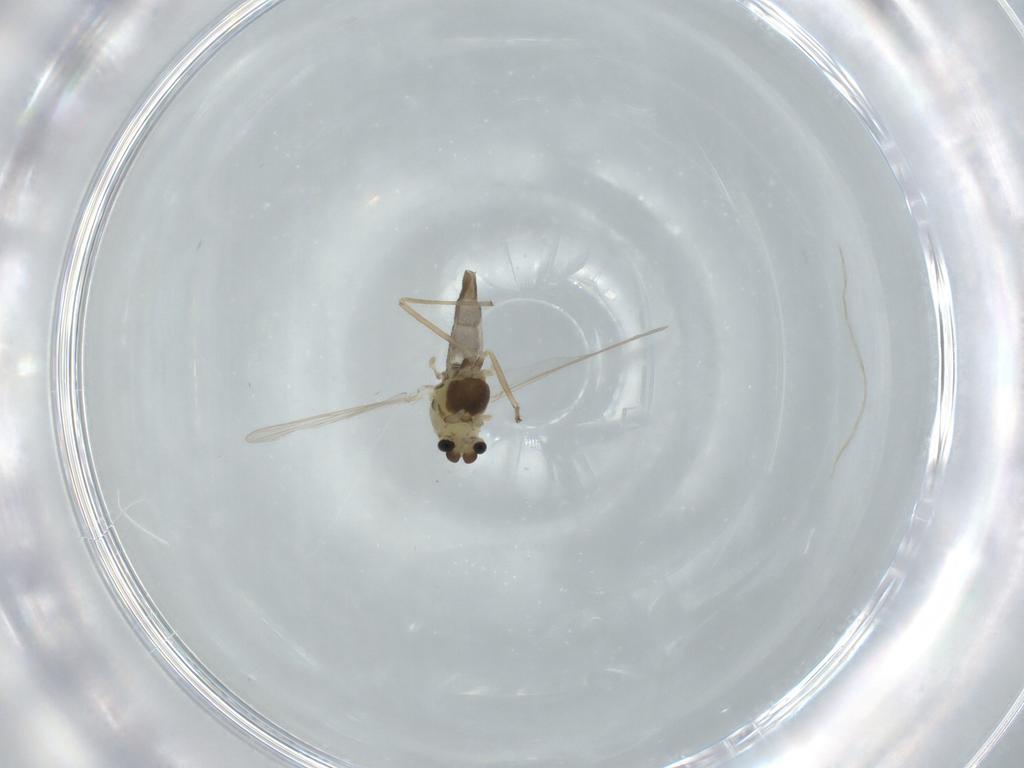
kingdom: Animalia
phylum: Arthropoda
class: Insecta
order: Diptera
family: Chironomidae
